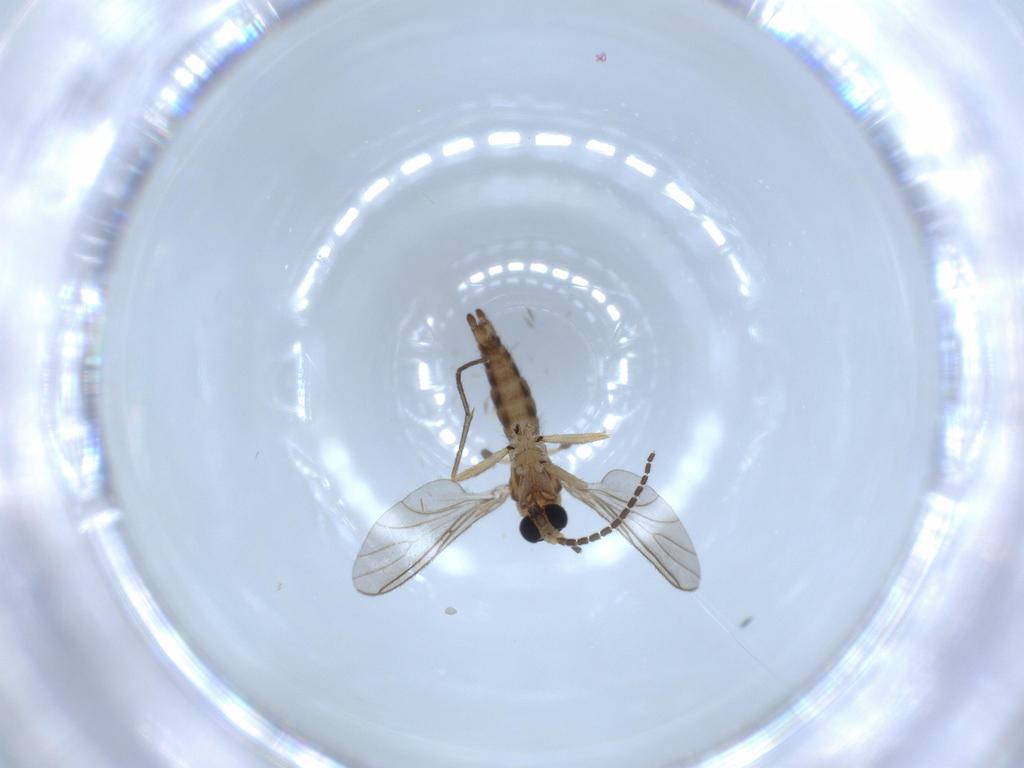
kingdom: Animalia
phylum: Arthropoda
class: Insecta
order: Diptera
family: Sciaridae
